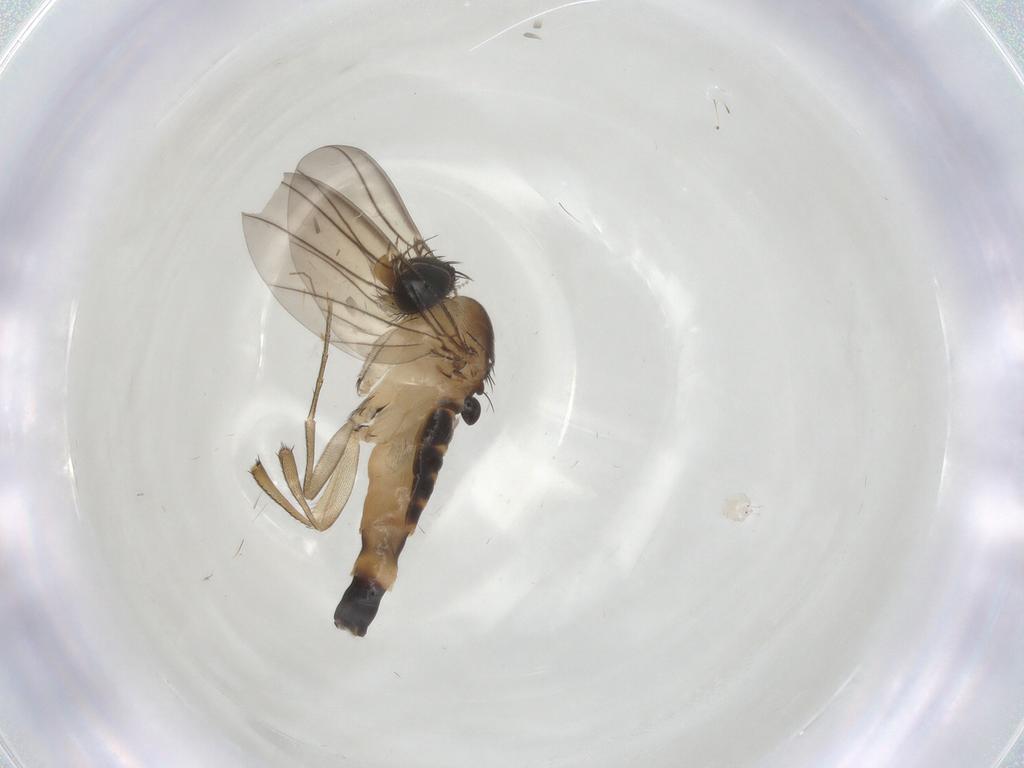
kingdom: Animalia
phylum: Arthropoda
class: Insecta
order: Diptera
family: Phoridae
